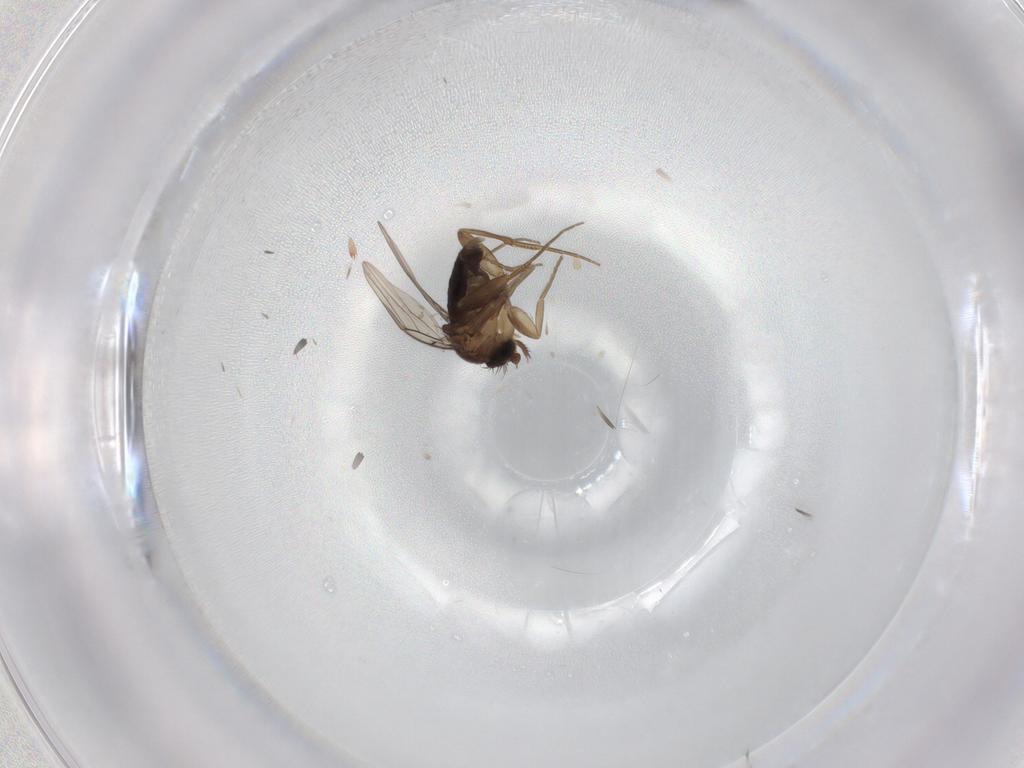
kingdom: Animalia
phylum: Arthropoda
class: Insecta
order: Diptera
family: Phoridae
